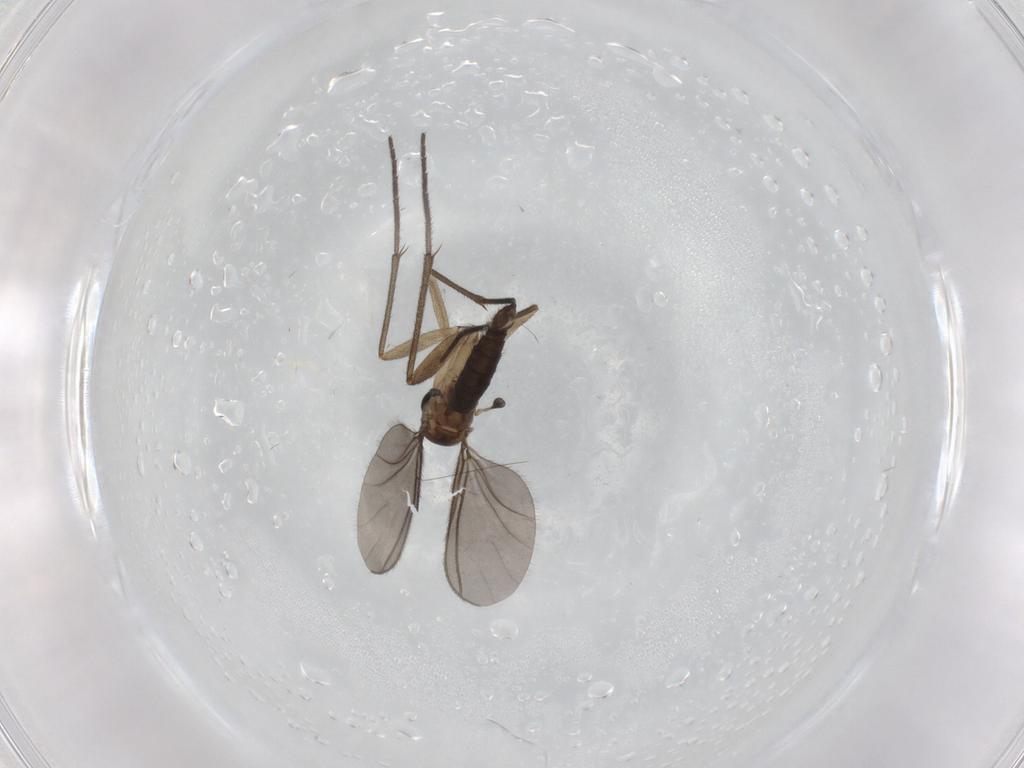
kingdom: Animalia
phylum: Arthropoda
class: Insecta
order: Diptera
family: Sciaridae
